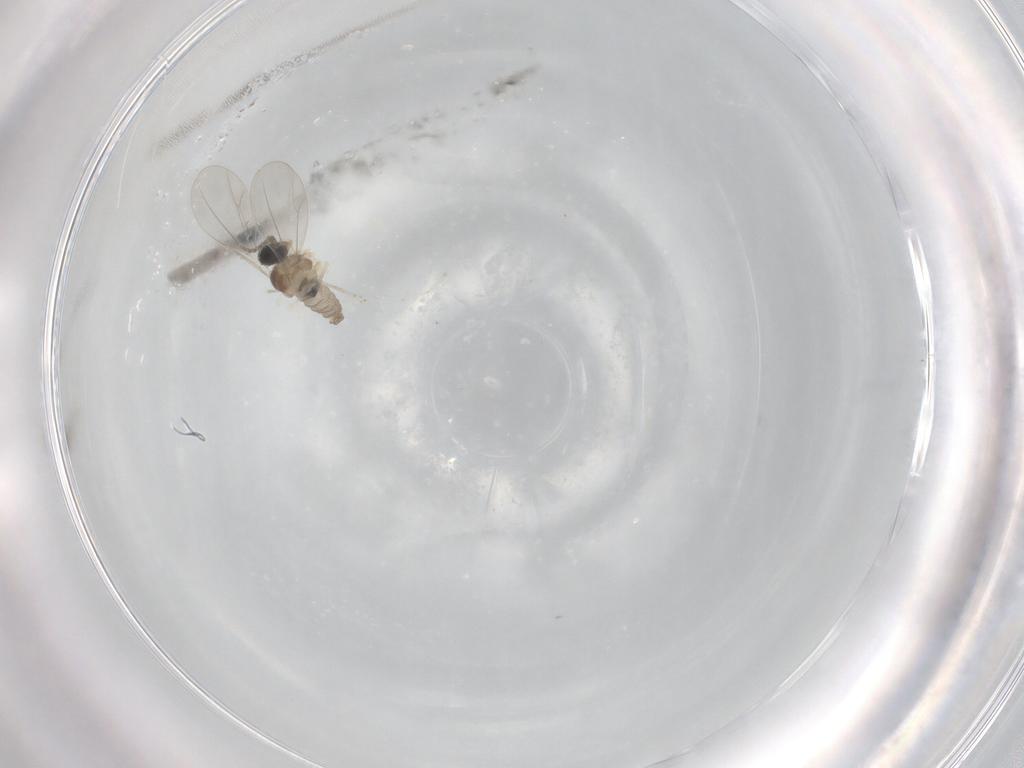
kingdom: Animalia
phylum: Arthropoda
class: Insecta
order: Diptera
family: Cecidomyiidae
